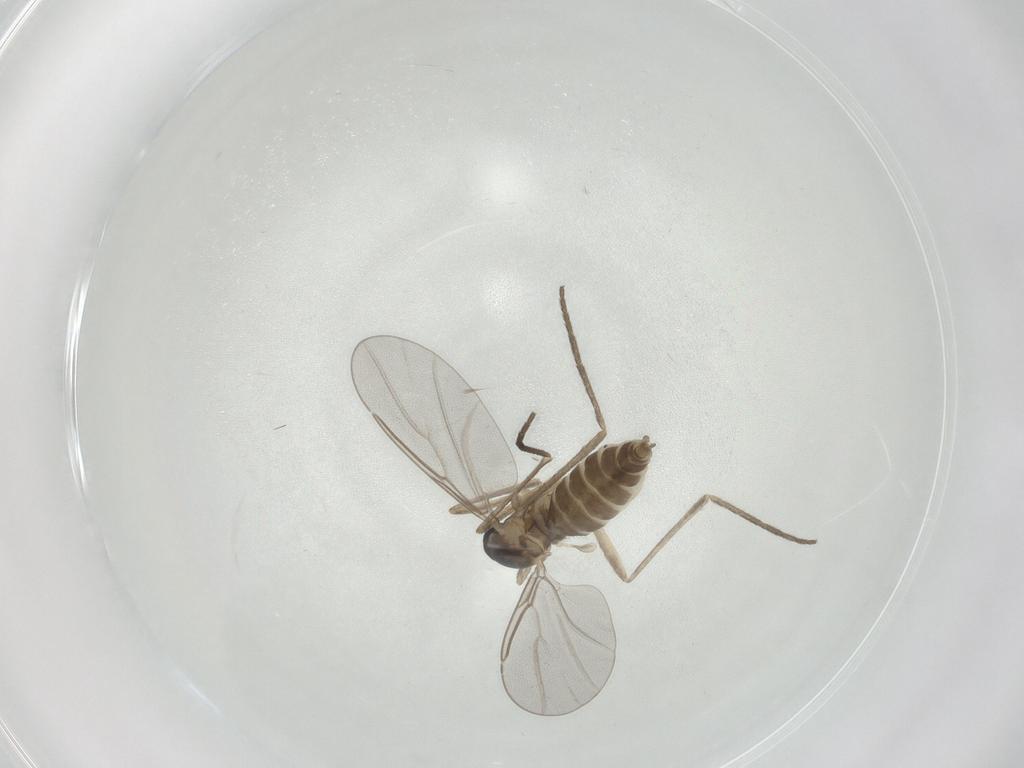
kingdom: Animalia
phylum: Arthropoda
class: Insecta
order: Diptera
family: Cecidomyiidae
